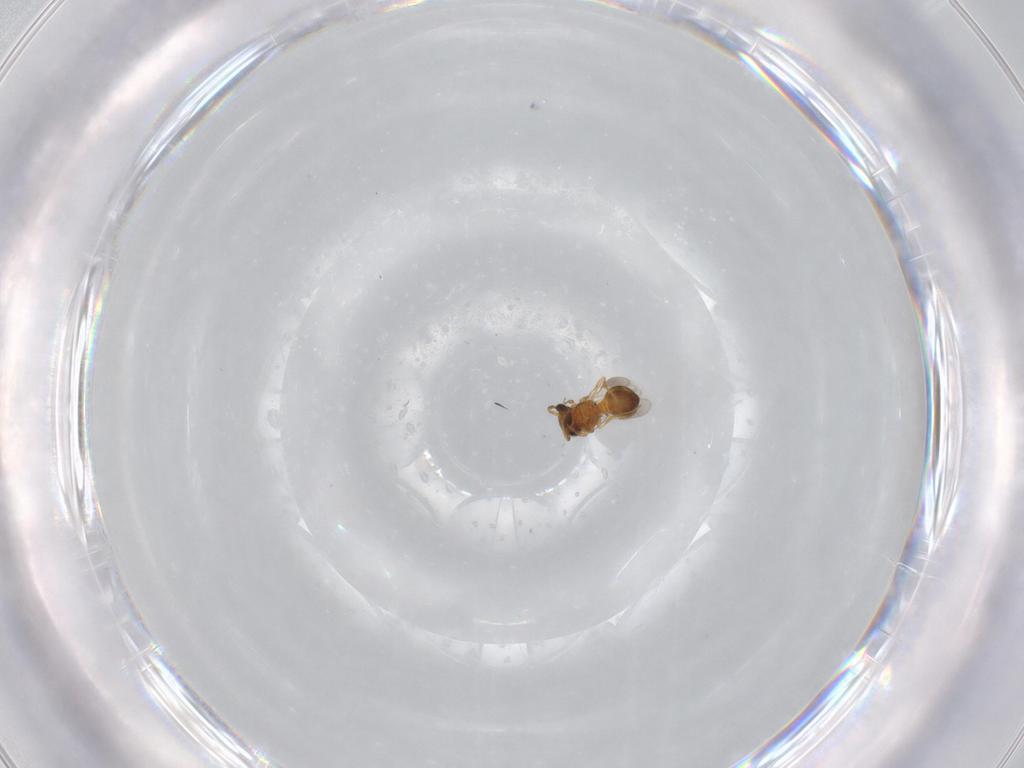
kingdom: Animalia
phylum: Arthropoda
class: Insecta
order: Hymenoptera
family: Scelionidae
